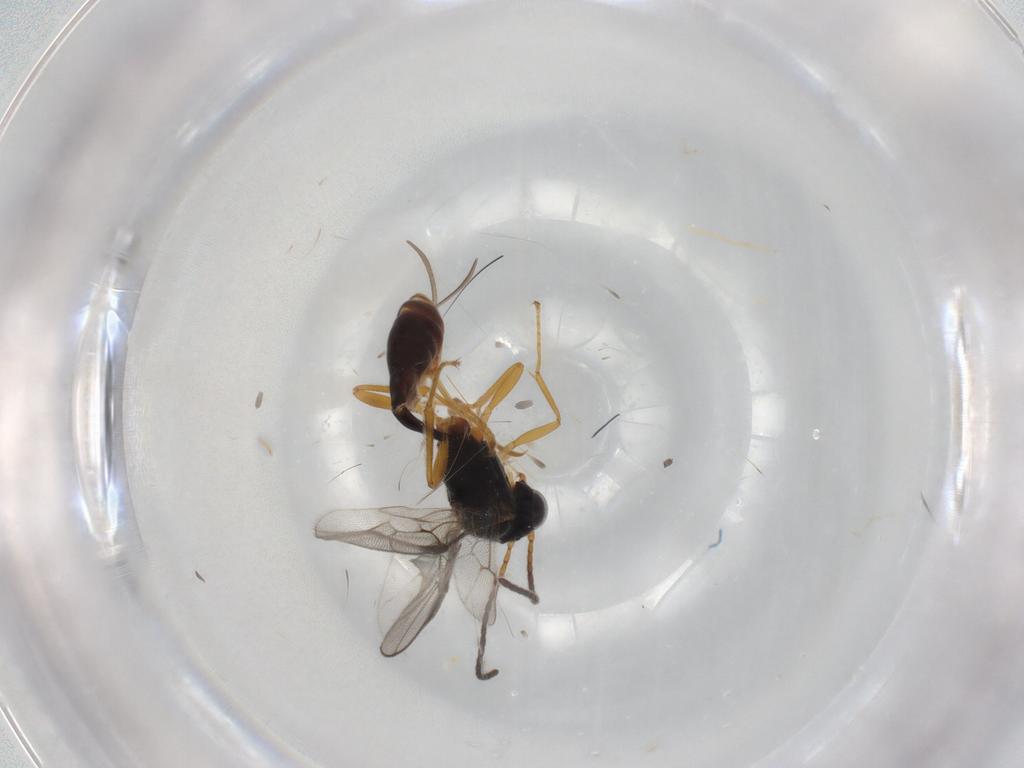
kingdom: Animalia
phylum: Arthropoda
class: Insecta
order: Hymenoptera
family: Ichneumonidae
